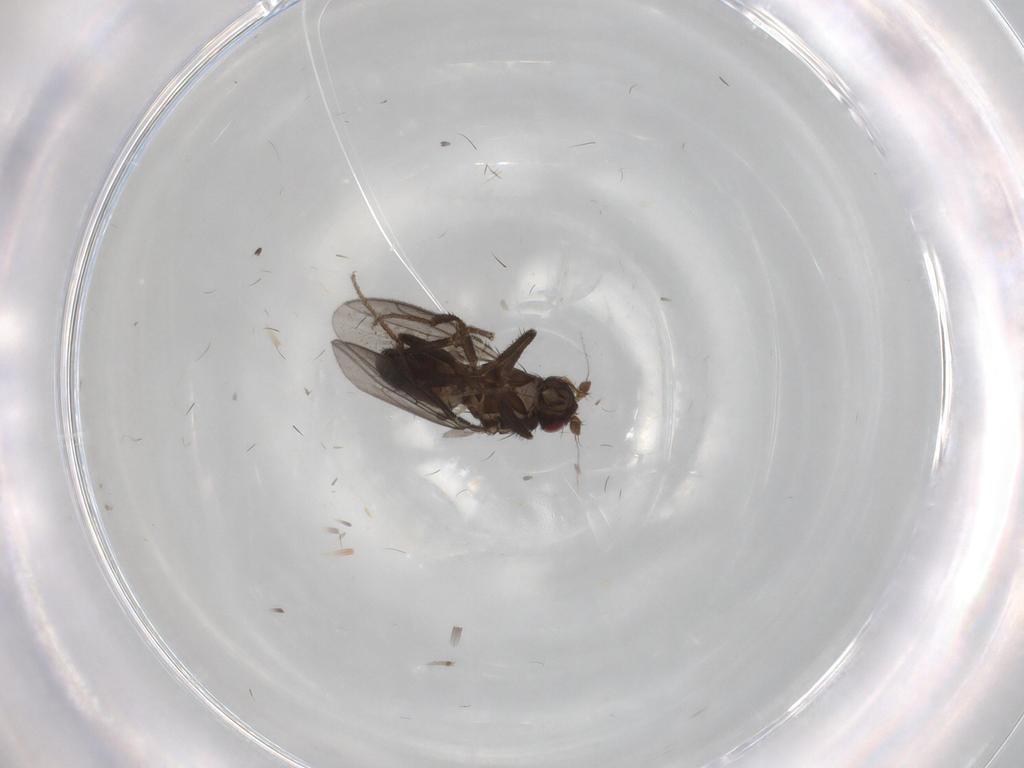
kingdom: Animalia
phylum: Arthropoda
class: Insecta
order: Diptera
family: Sphaeroceridae
